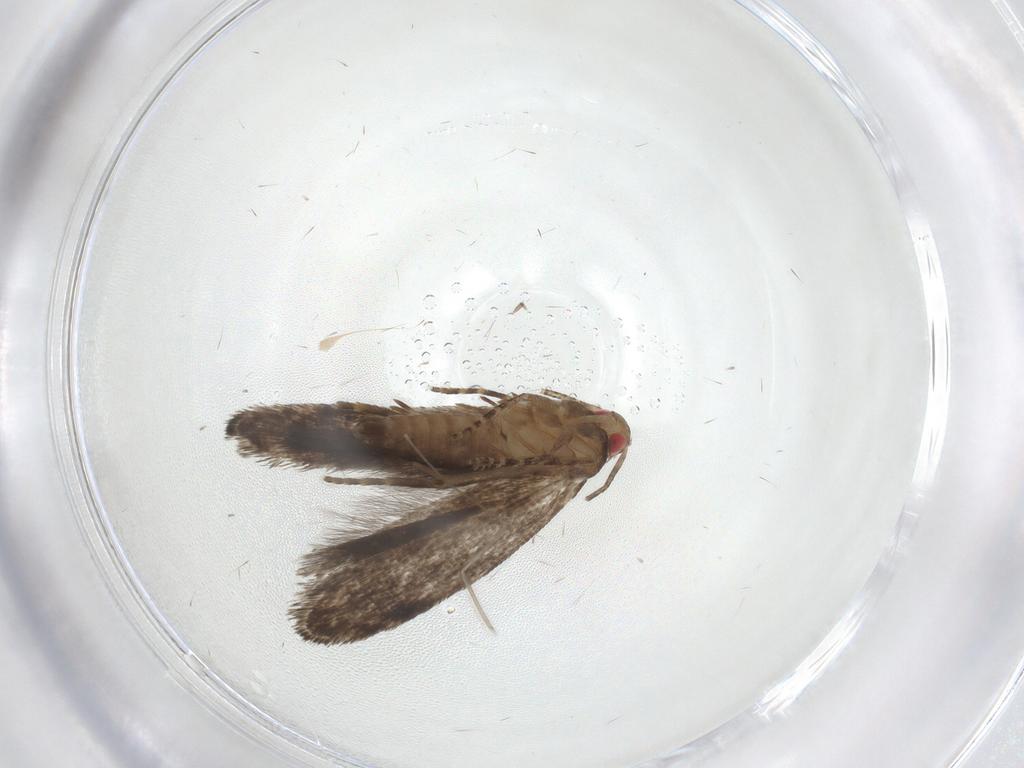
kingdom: Animalia
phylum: Arthropoda
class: Insecta
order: Lepidoptera
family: Gelechiidae
